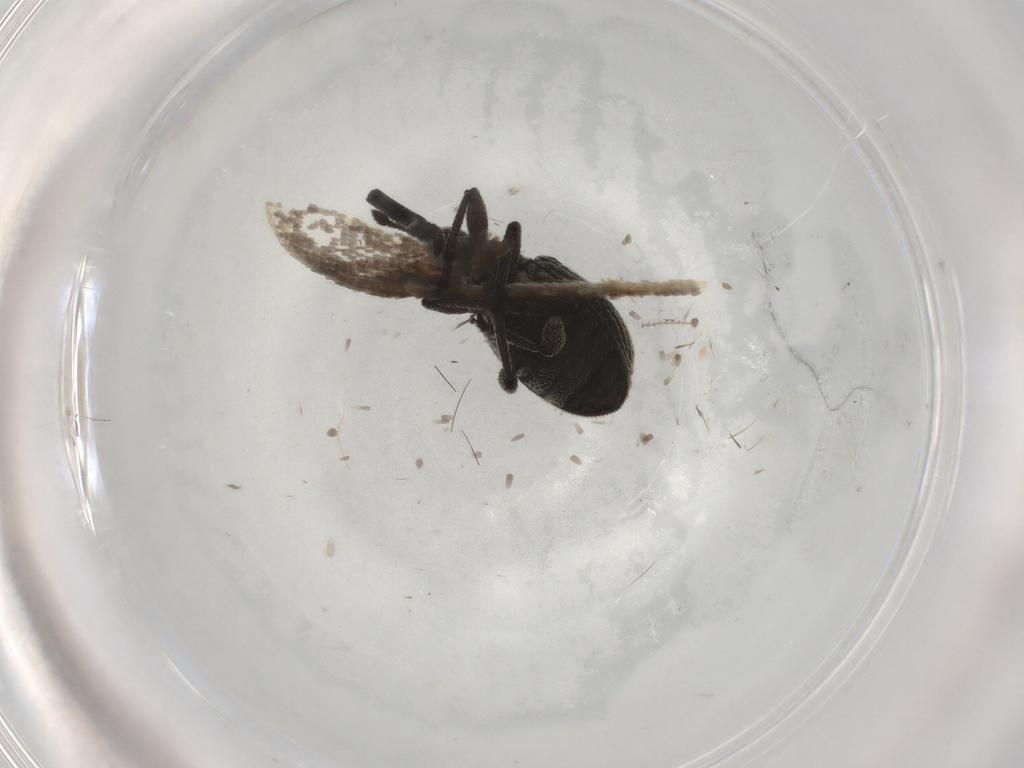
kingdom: Animalia
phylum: Arthropoda
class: Insecta
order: Coleoptera
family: Brentidae
